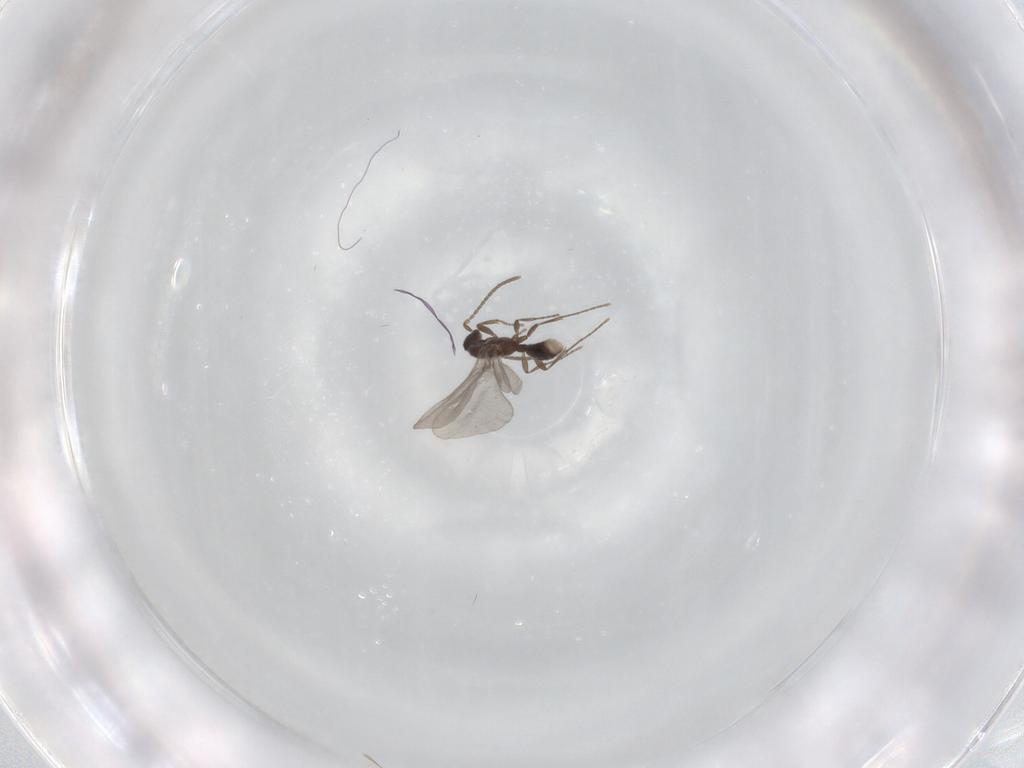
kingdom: Animalia
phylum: Arthropoda
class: Insecta
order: Hymenoptera
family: Formicidae
